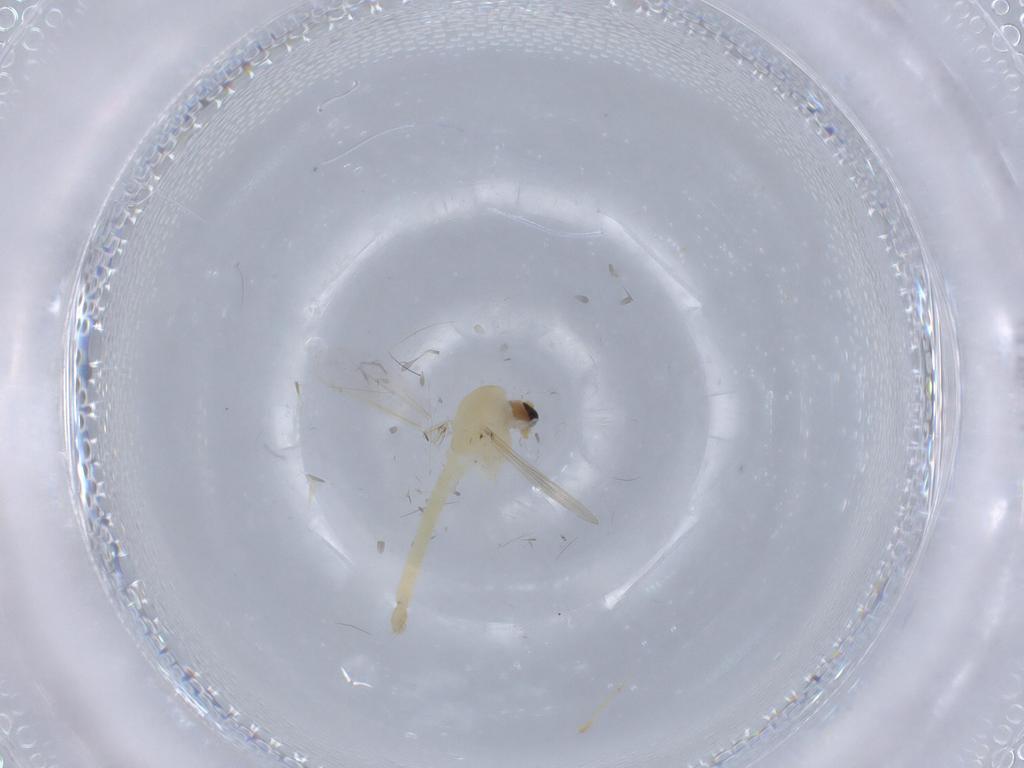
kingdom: Animalia
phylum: Arthropoda
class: Insecta
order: Diptera
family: Chironomidae
